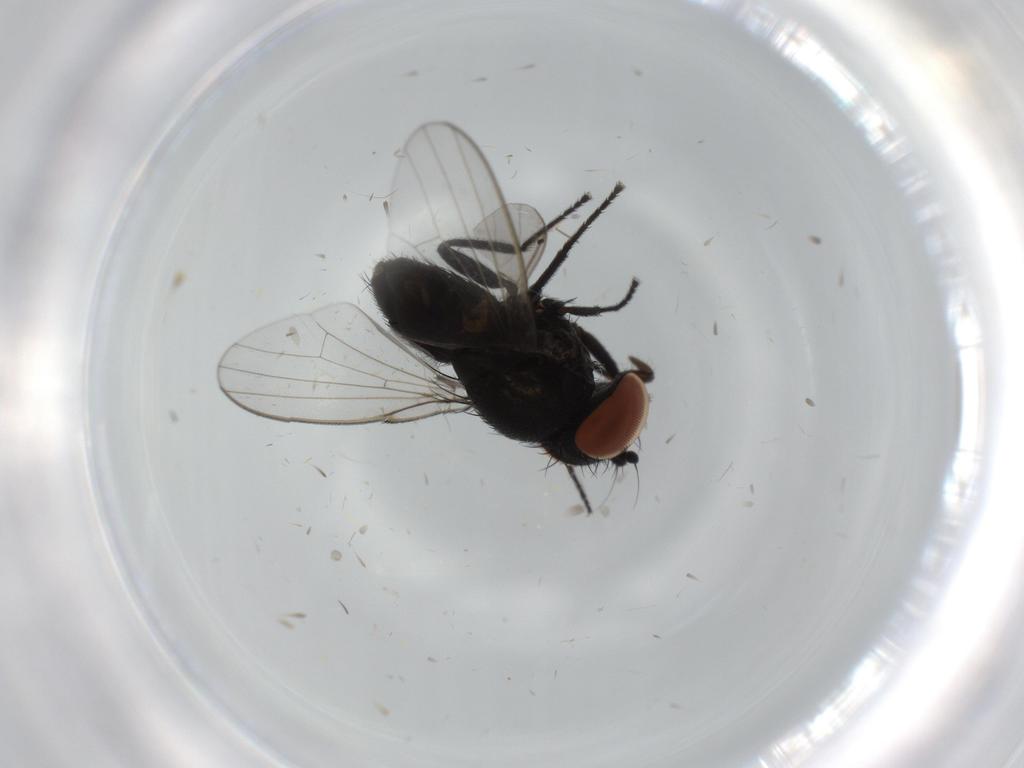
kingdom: Animalia
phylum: Arthropoda
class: Insecta
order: Diptera
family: Milichiidae
